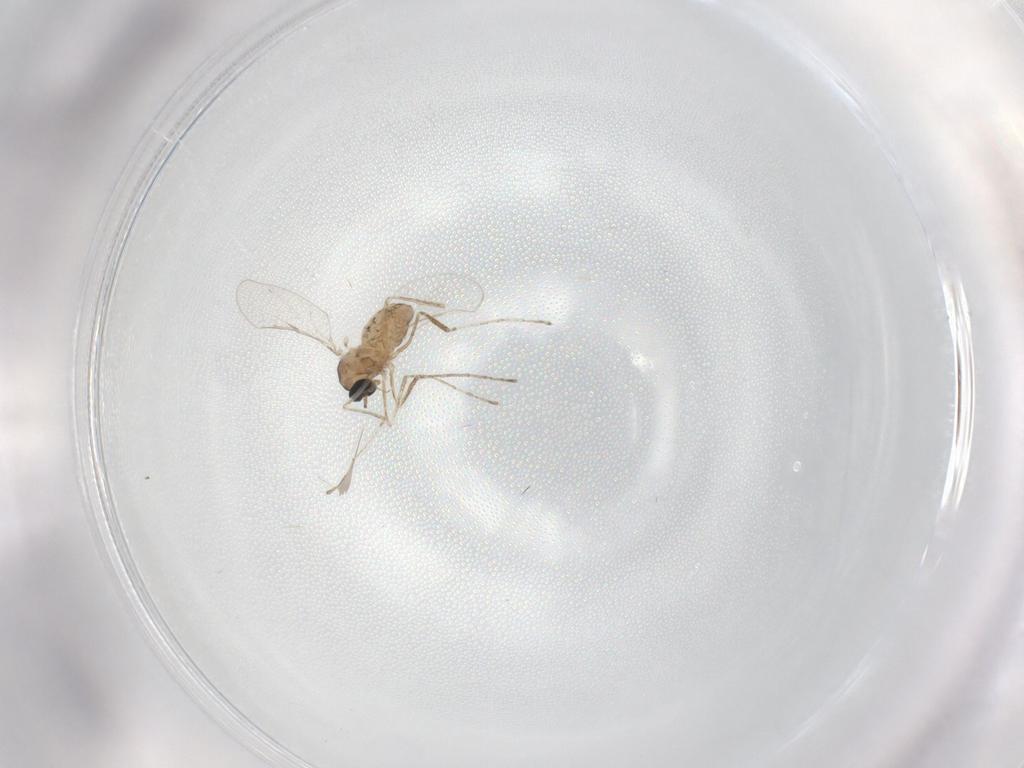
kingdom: Animalia
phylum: Arthropoda
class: Insecta
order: Diptera
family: Cecidomyiidae
